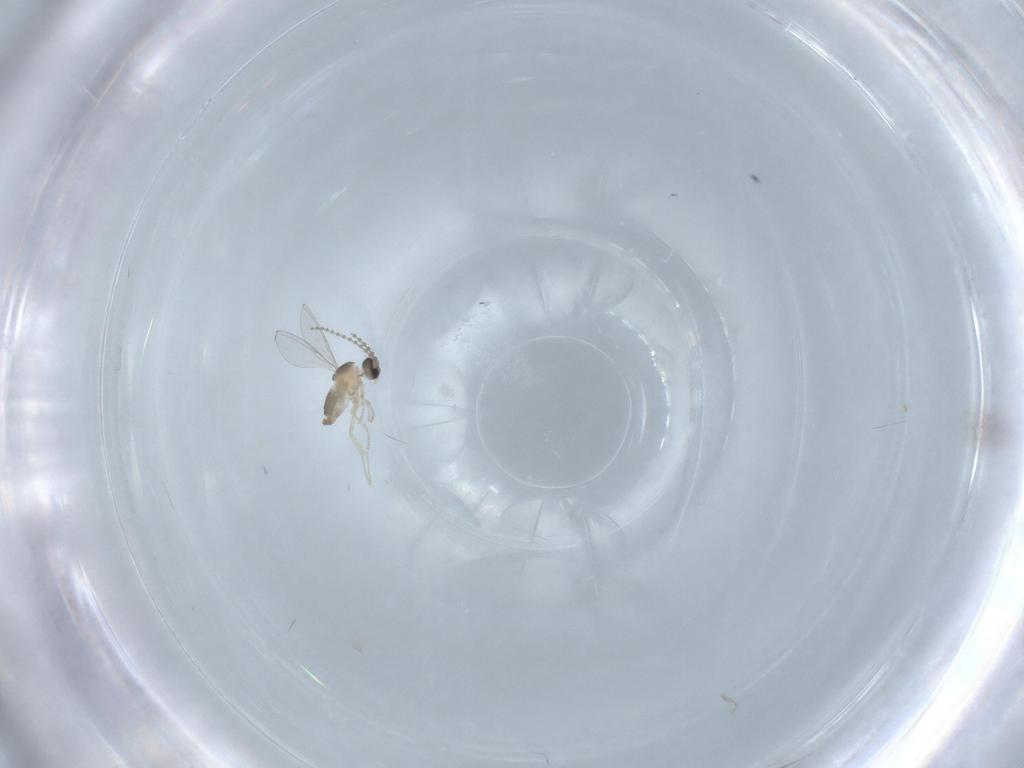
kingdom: Animalia
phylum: Arthropoda
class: Insecta
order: Diptera
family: Cecidomyiidae
